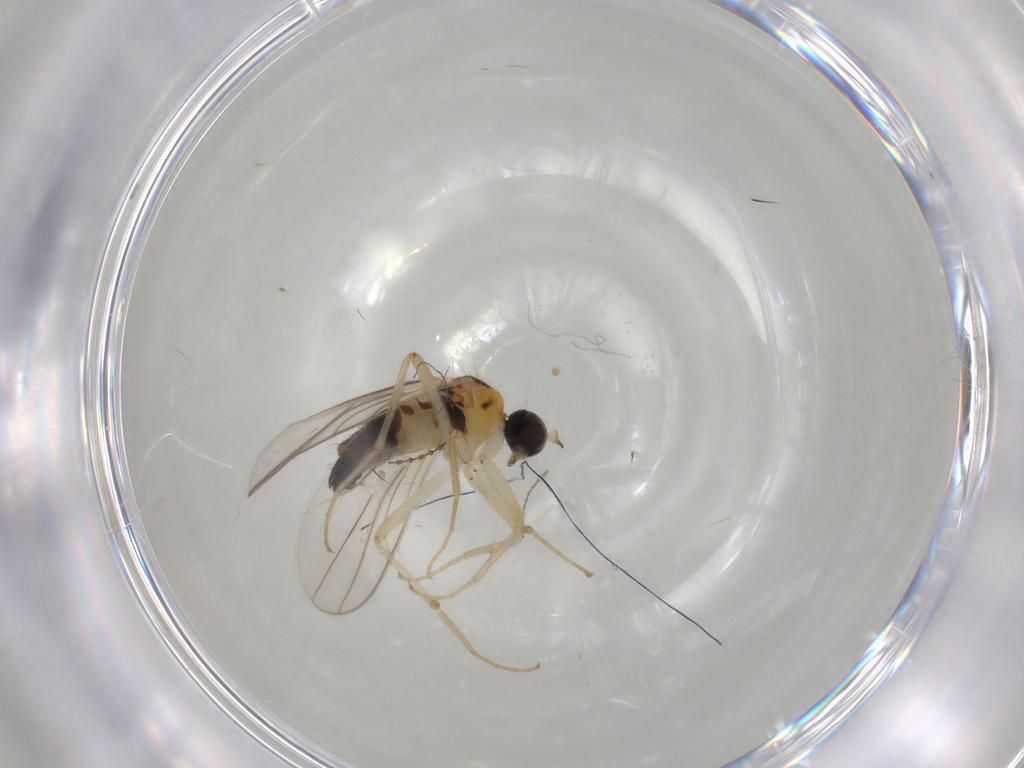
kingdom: Animalia
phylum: Arthropoda
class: Insecta
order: Diptera
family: Hybotidae
